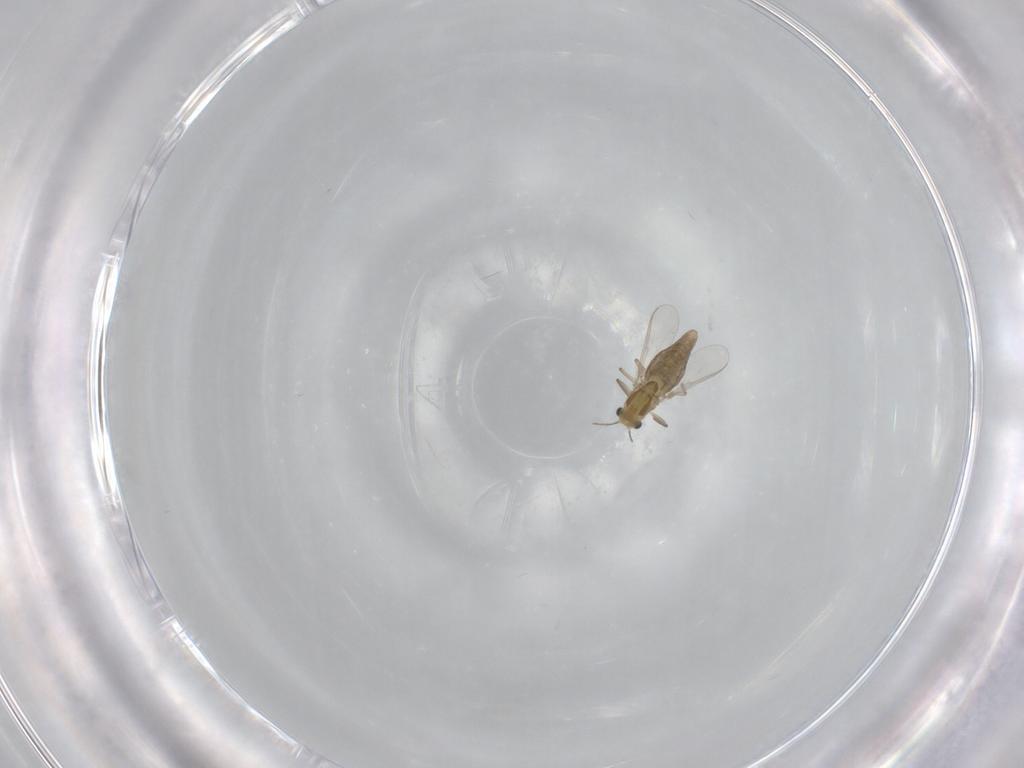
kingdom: Animalia
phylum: Arthropoda
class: Insecta
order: Diptera
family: Chironomidae
